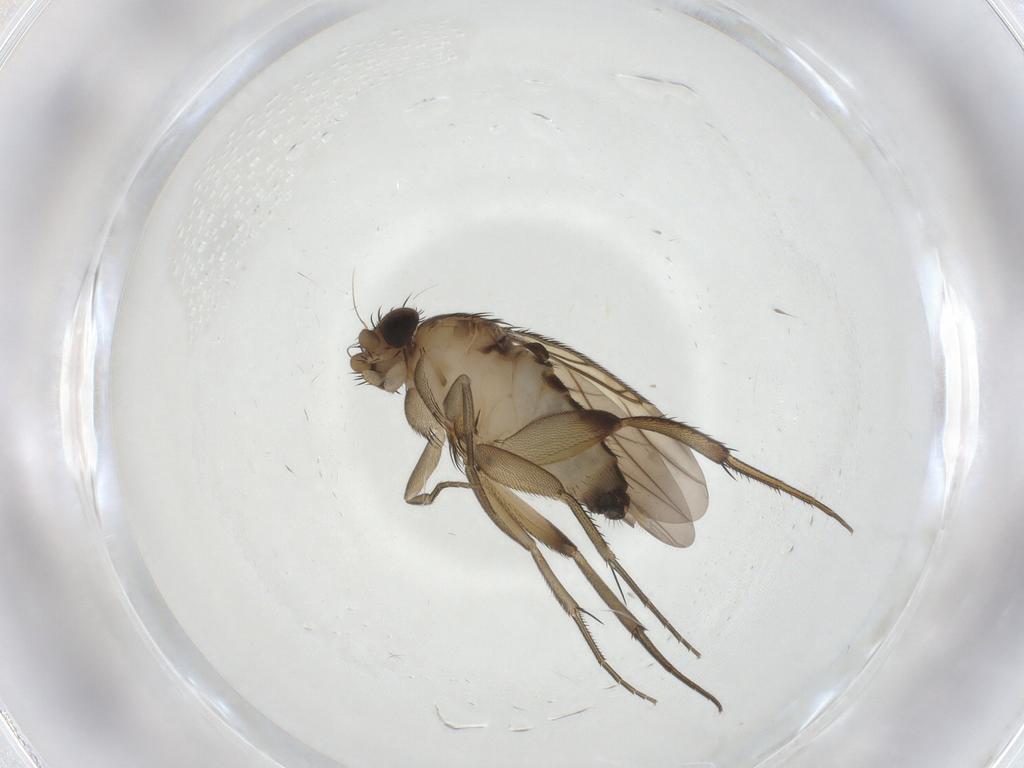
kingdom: Animalia
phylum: Arthropoda
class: Insecta
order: Diptera
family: Phoridae
